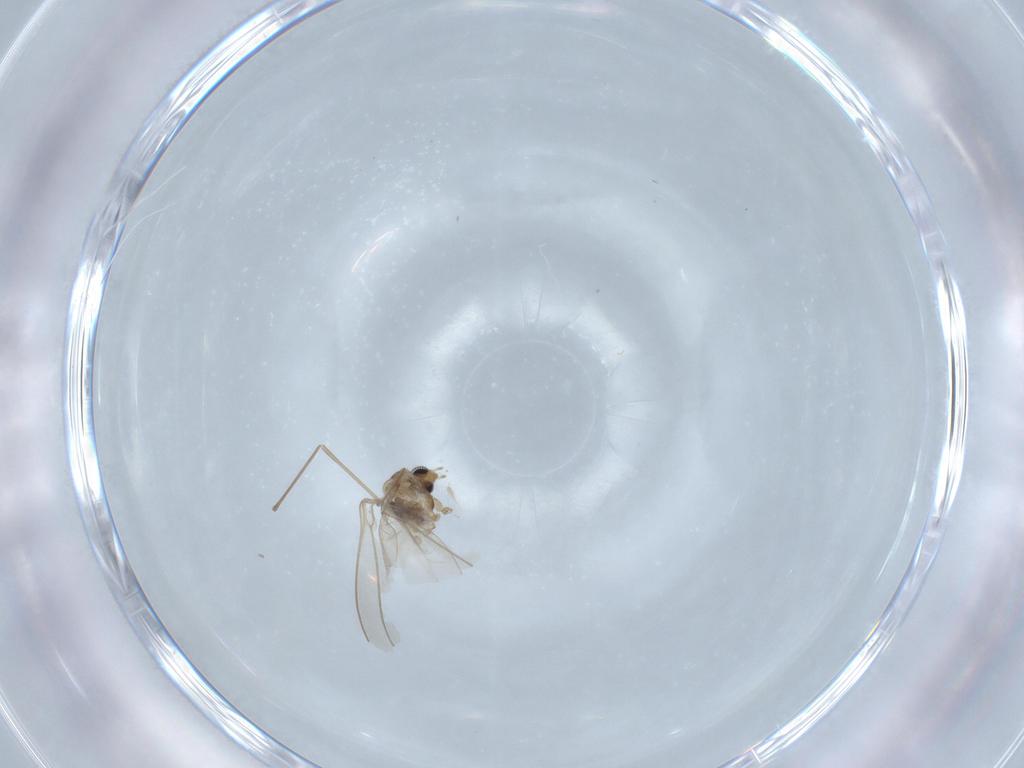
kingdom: Animalia
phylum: Arthropoda
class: Insecta
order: Diptera
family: Cecidomyiidae
